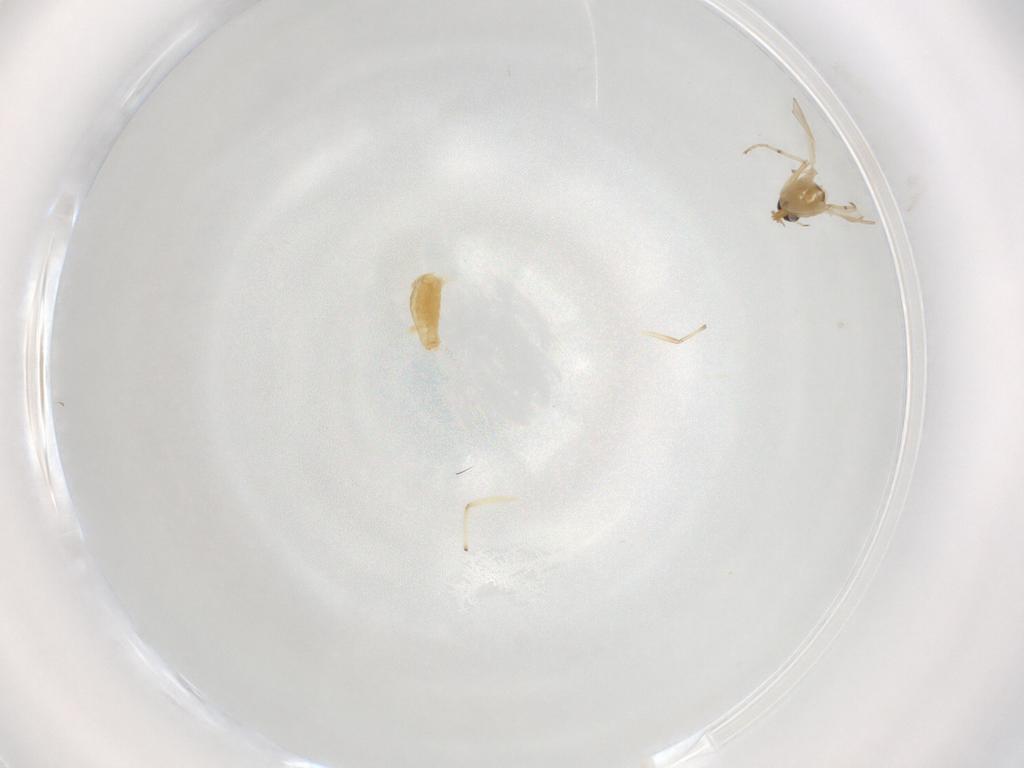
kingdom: Animalia
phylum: Arthropoda
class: Insecta
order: Diptera
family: Chironomidae
